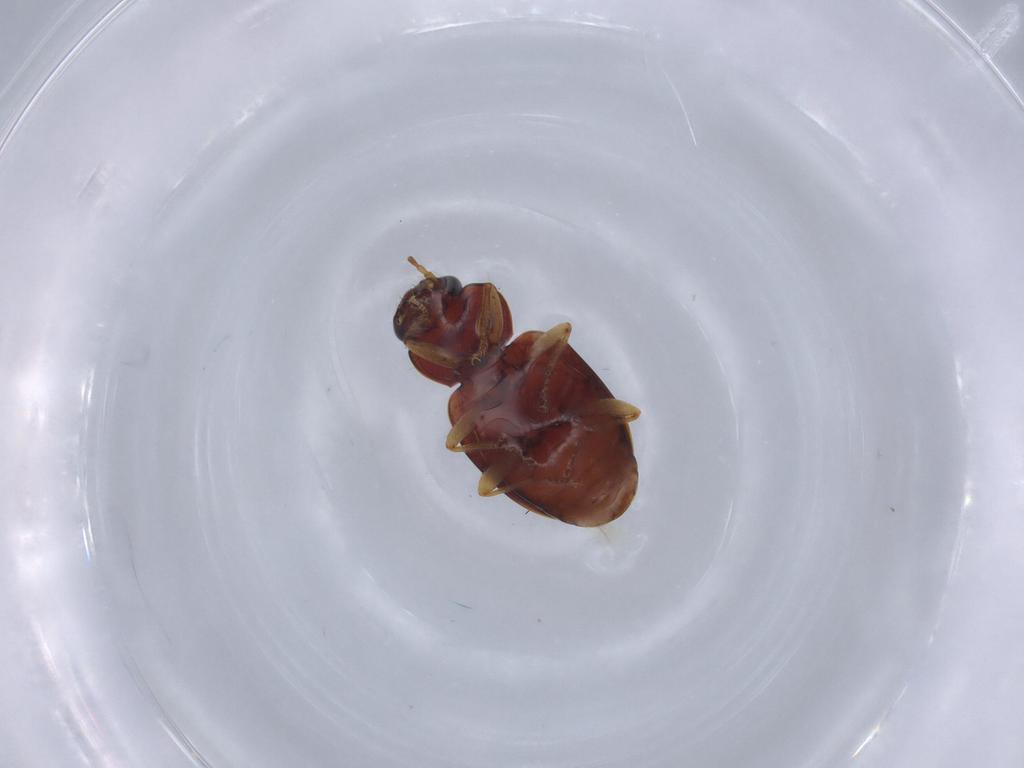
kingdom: Animalia
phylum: Arthropoda
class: Insecta
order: Coleoptera
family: Carabidae
